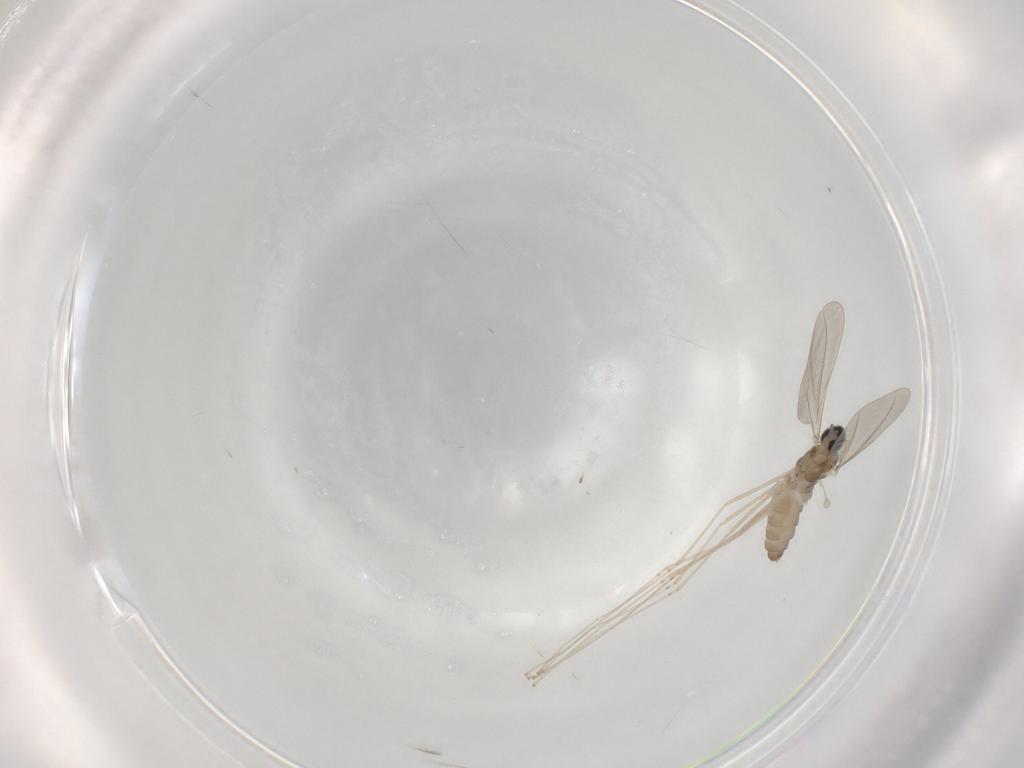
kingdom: Animalia
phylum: Arthropoda
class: Insecta
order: Diptera
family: Cecidomyiidae
